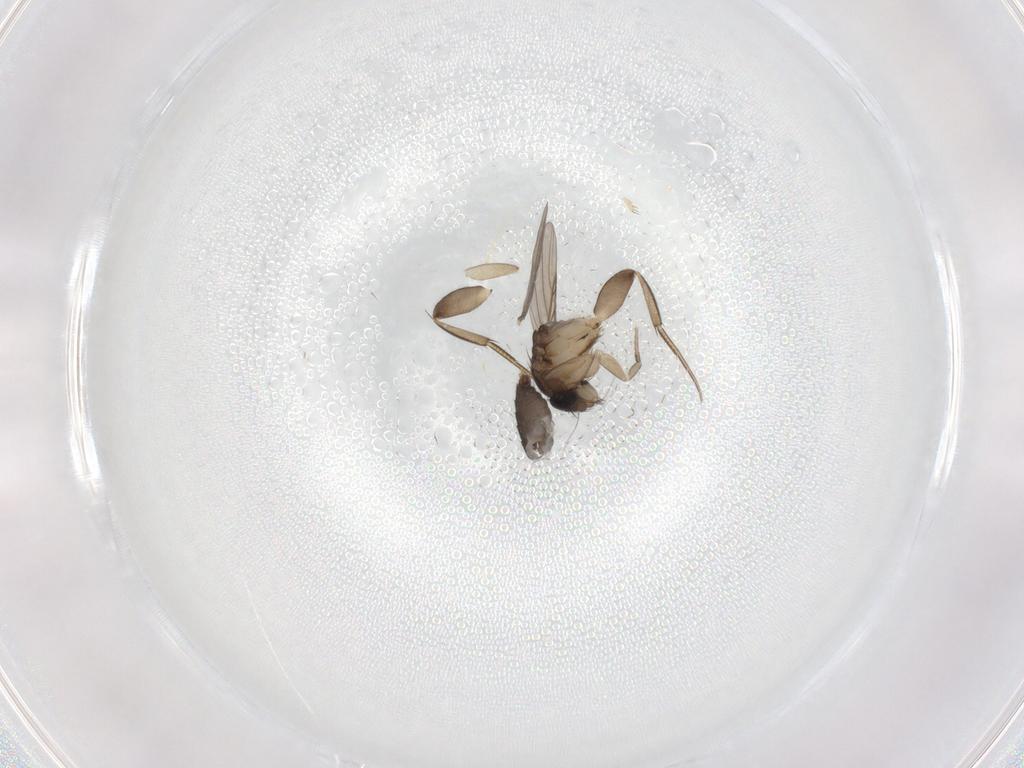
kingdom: Animalia
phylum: Arthropoda
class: Insecta
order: Diptera
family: Phoridae
